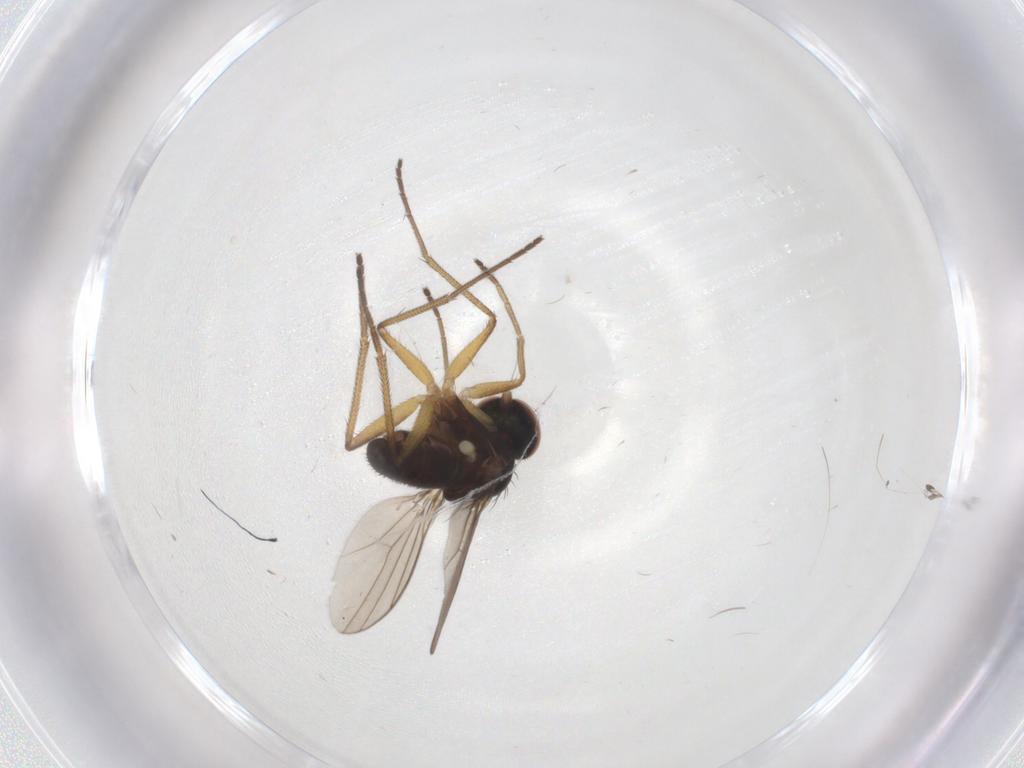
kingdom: Animalia
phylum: Arthropoda
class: Insecta
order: Diptera
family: Dolichopodidae
